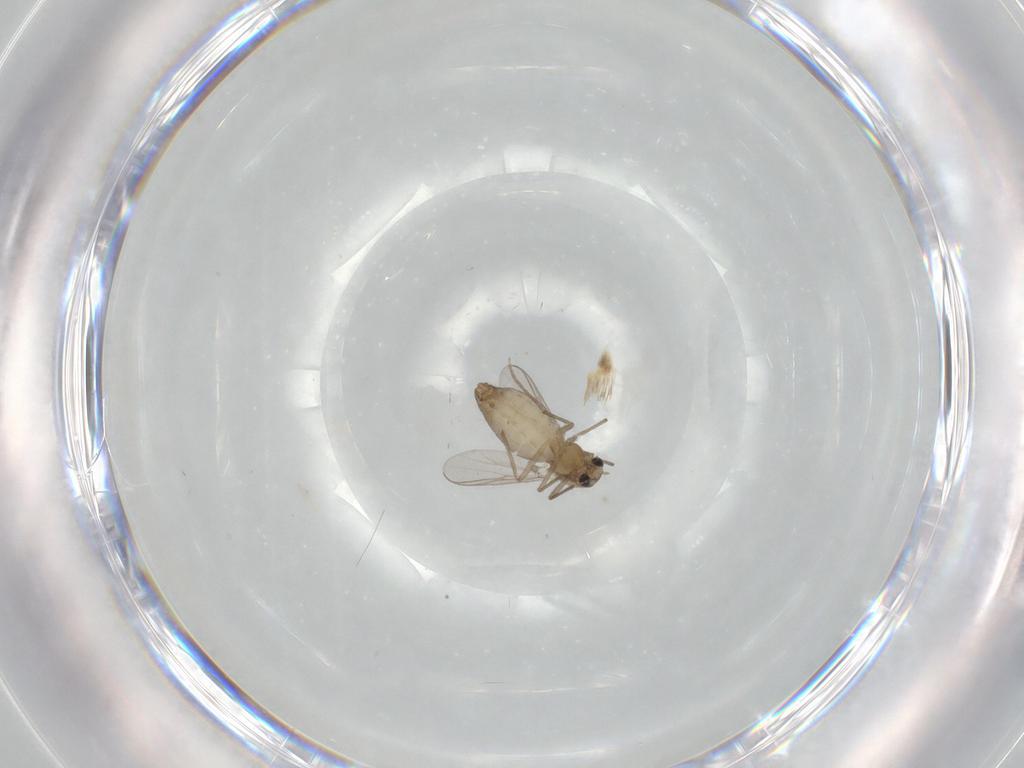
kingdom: Animalia
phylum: Arthropoda
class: Insecta
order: Diptera
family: Chironomidae
